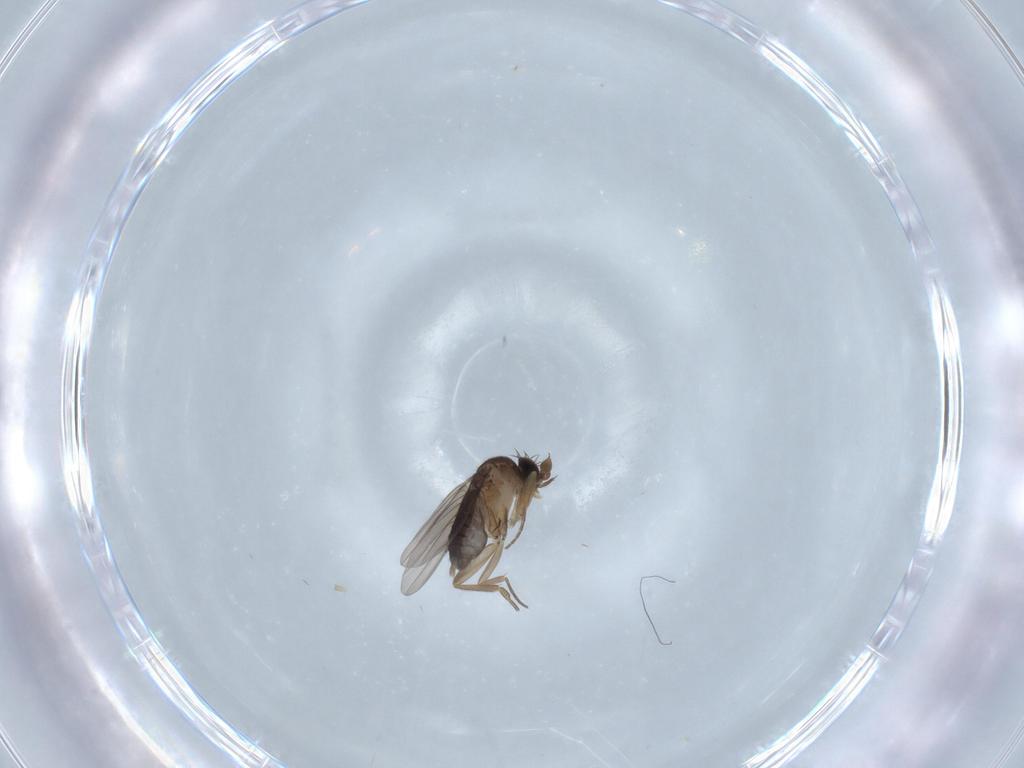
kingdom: Animalia
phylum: Arthropoda
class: Insecta
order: Diptera
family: Phoridae
